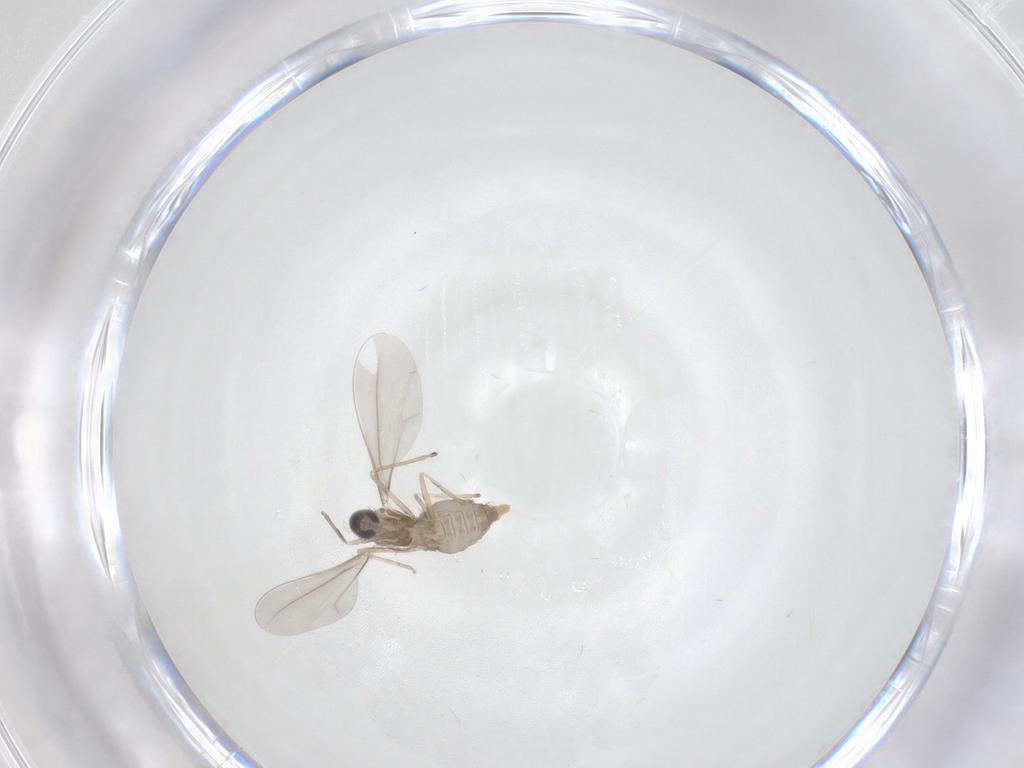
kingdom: Animalia
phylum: Arthropoda
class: Insecta
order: Diptera
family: Cecidomyiidae
